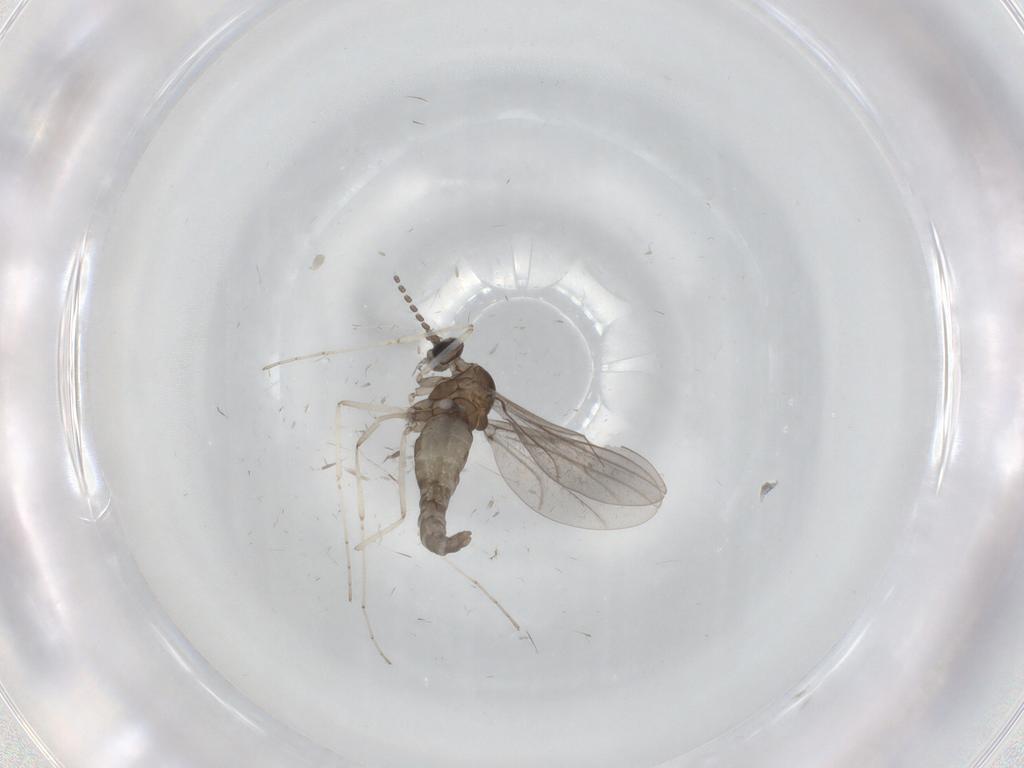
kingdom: Animalia
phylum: Arthropoda
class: Insecta
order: Diptera
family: Cecidomyiidae
